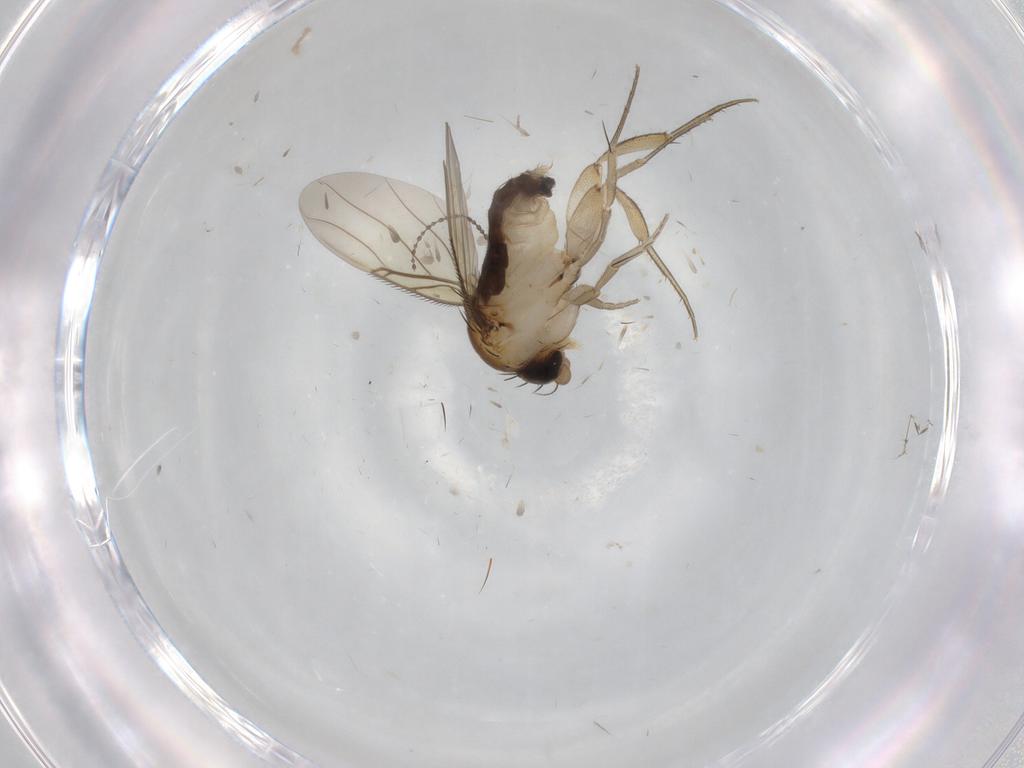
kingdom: Animalia
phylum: Arthropoda
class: Insecta
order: Diptera
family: Phoridae
